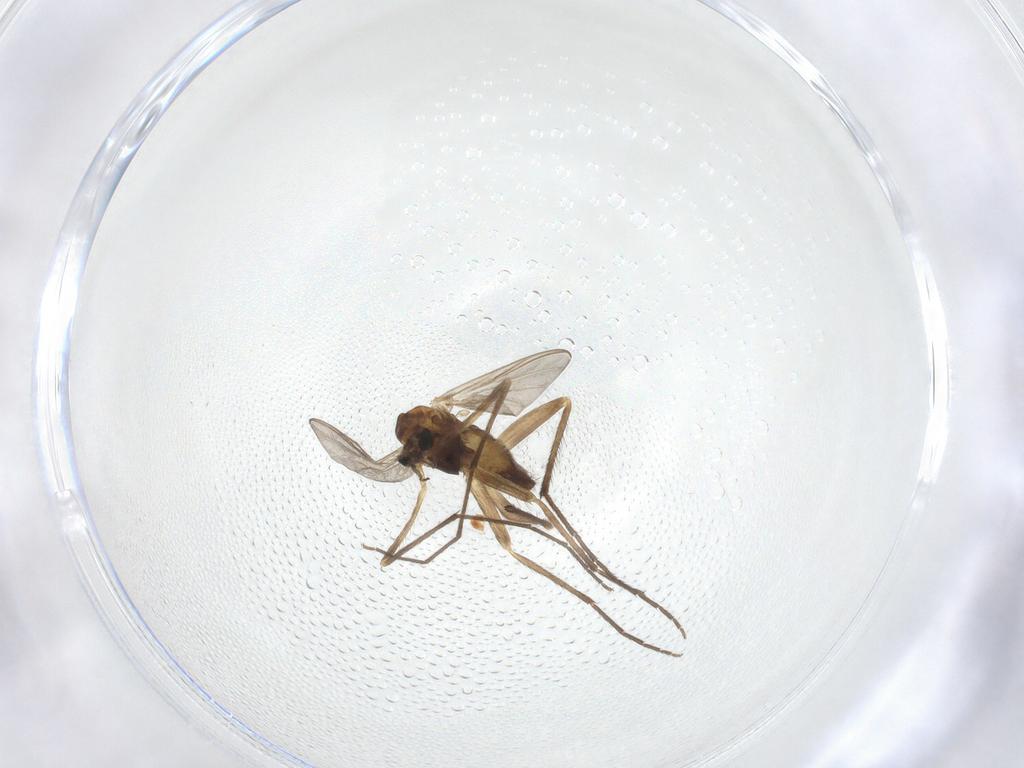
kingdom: Animalia
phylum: Arthropoda
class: Insecta
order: Diptera
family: Chironomidae
